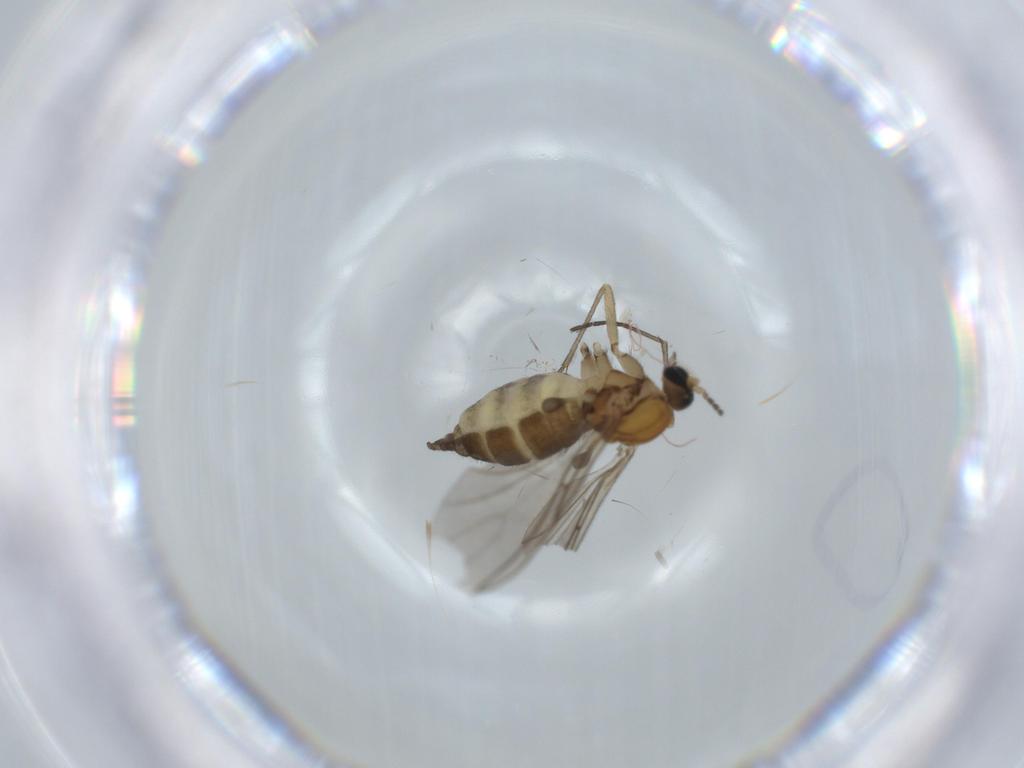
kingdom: Animalia
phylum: Arthropoda
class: Insecta
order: Diptera
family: Sciaridae
